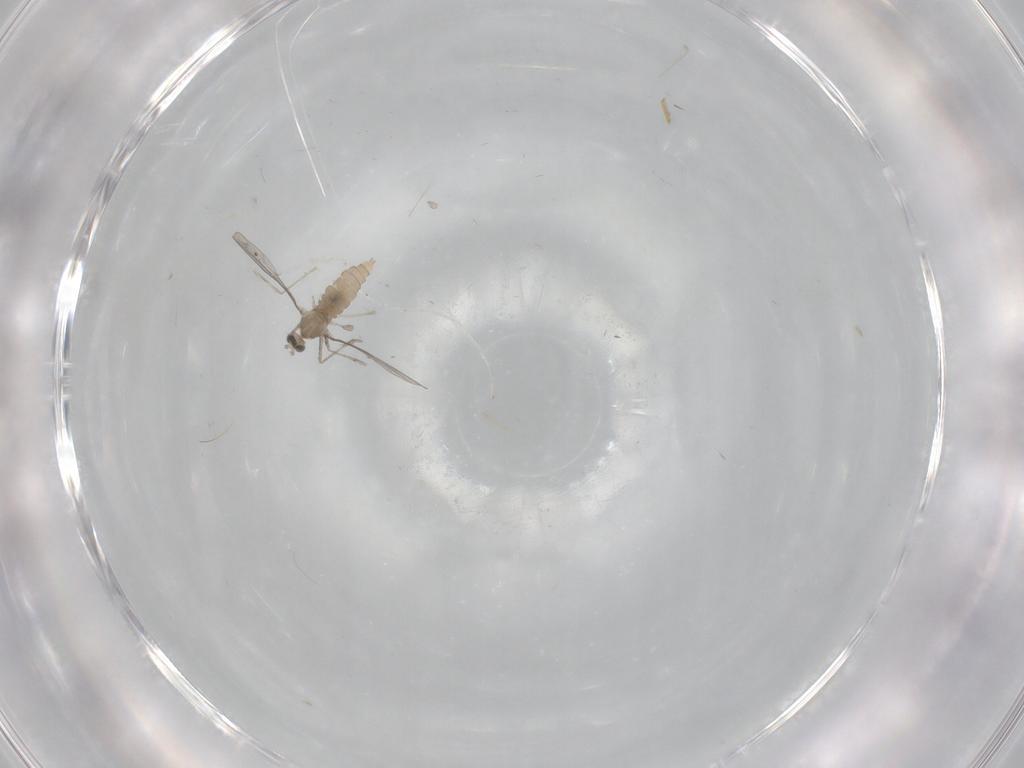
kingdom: Animalia
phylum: Arthropoda
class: Insecta
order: Diptera
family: Cecidomyiidae
